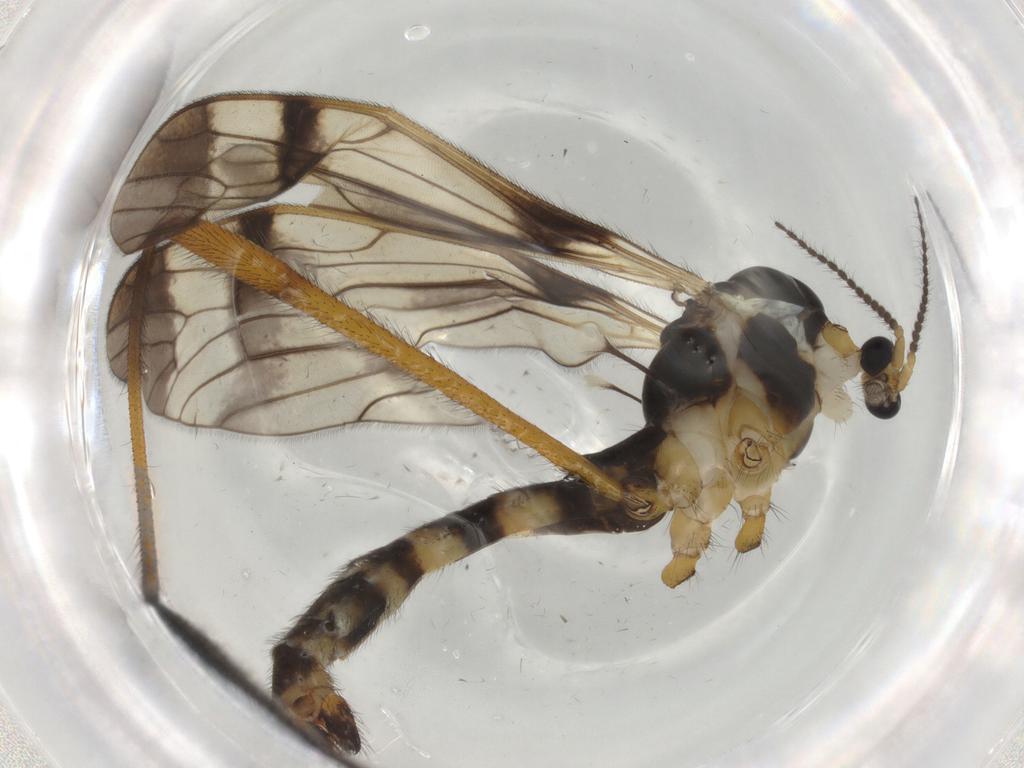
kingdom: Animalia
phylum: Arthropoda
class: Insecta
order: Diptera
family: Limoniidae
